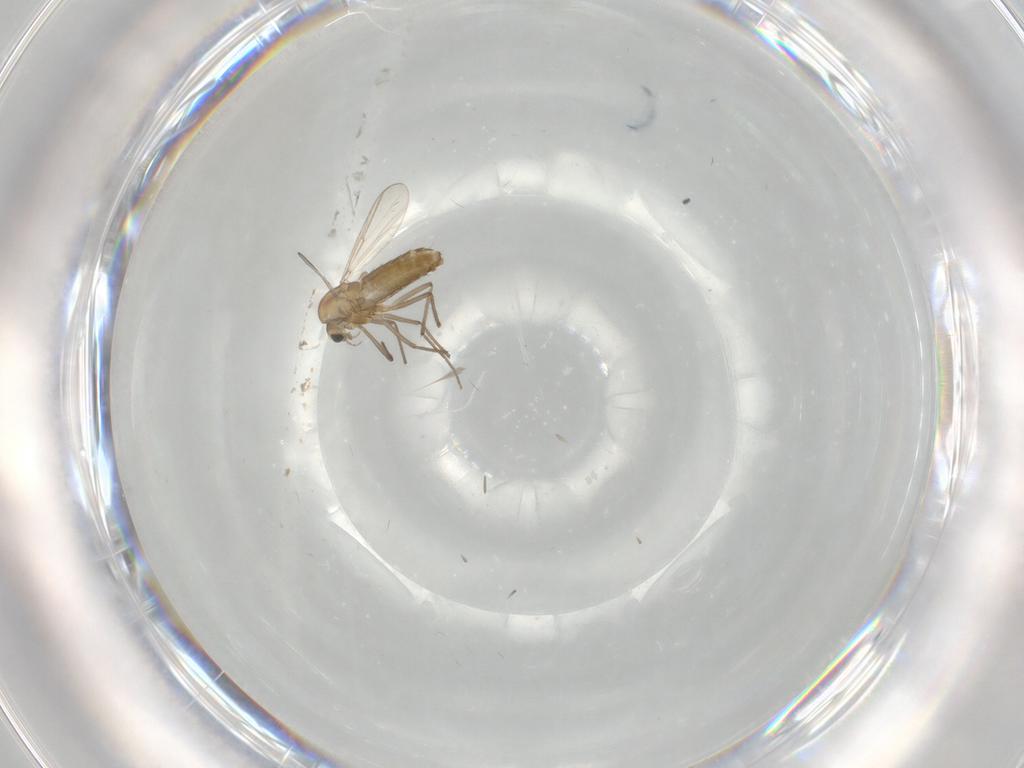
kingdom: Animalia
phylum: Arthropoda
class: Insecta
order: Diptera
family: Chironomidae
